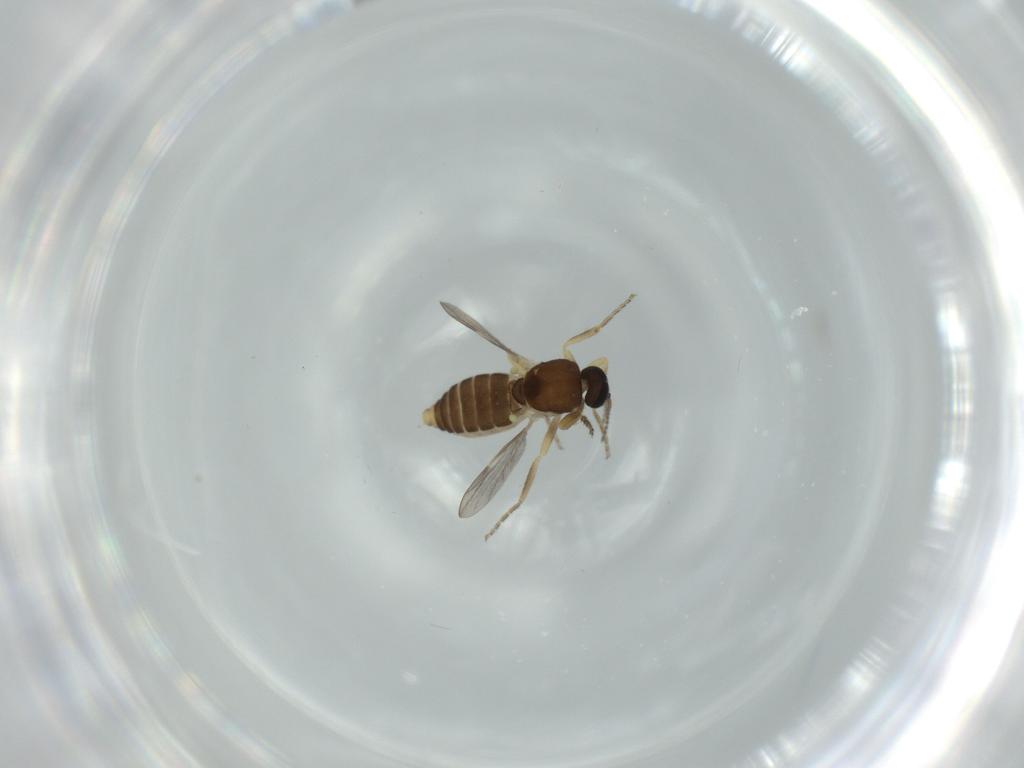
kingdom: Animalia
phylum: Arthropoda
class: Insecta
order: Diptera
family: Ceratopogonidae
